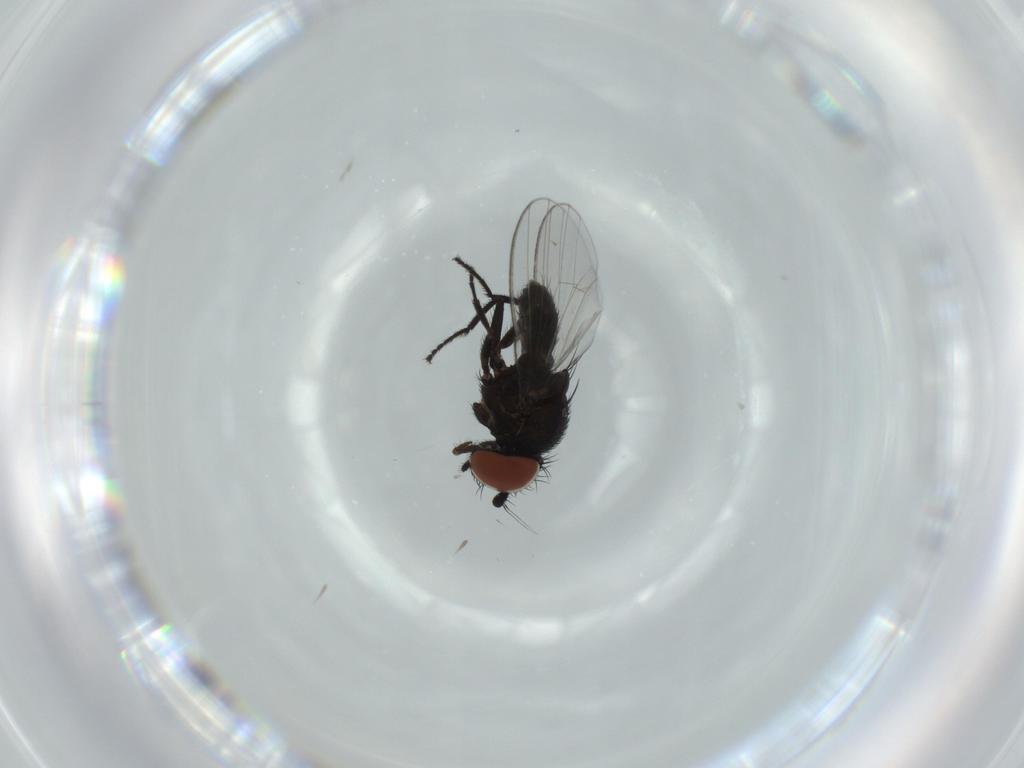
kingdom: Animalia
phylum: Arthropoda
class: Insecta
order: Diptera
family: Milichiidae
